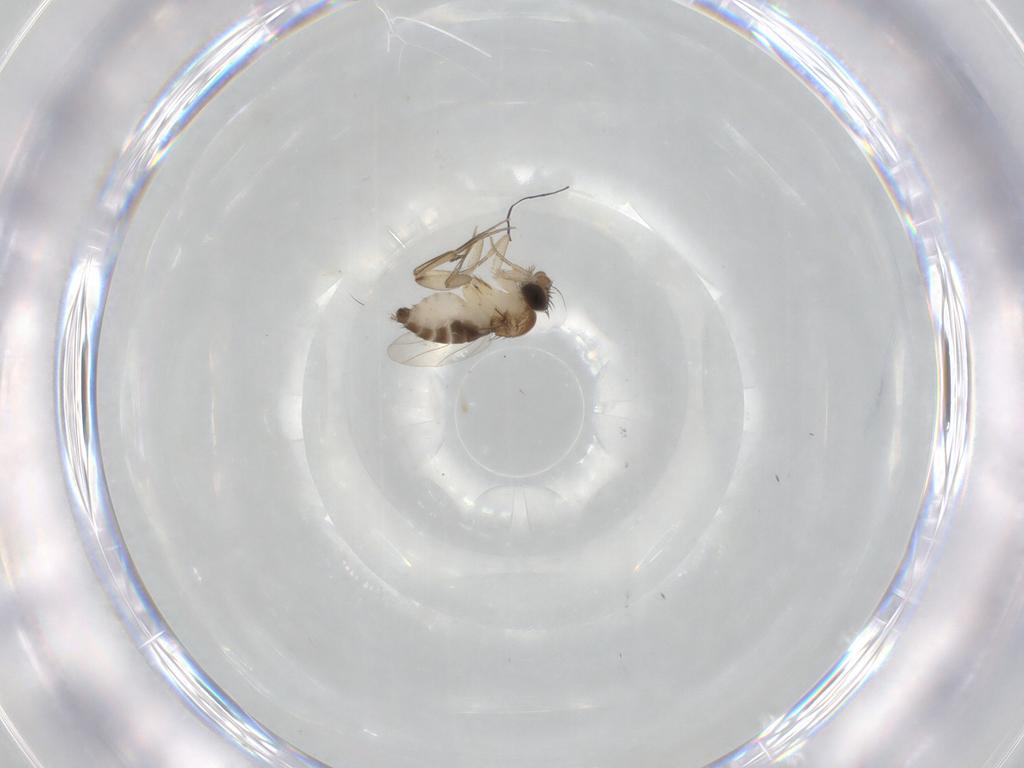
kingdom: Animalia
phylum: Arthropoda
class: Insecta
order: Diptera
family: Phoridae
